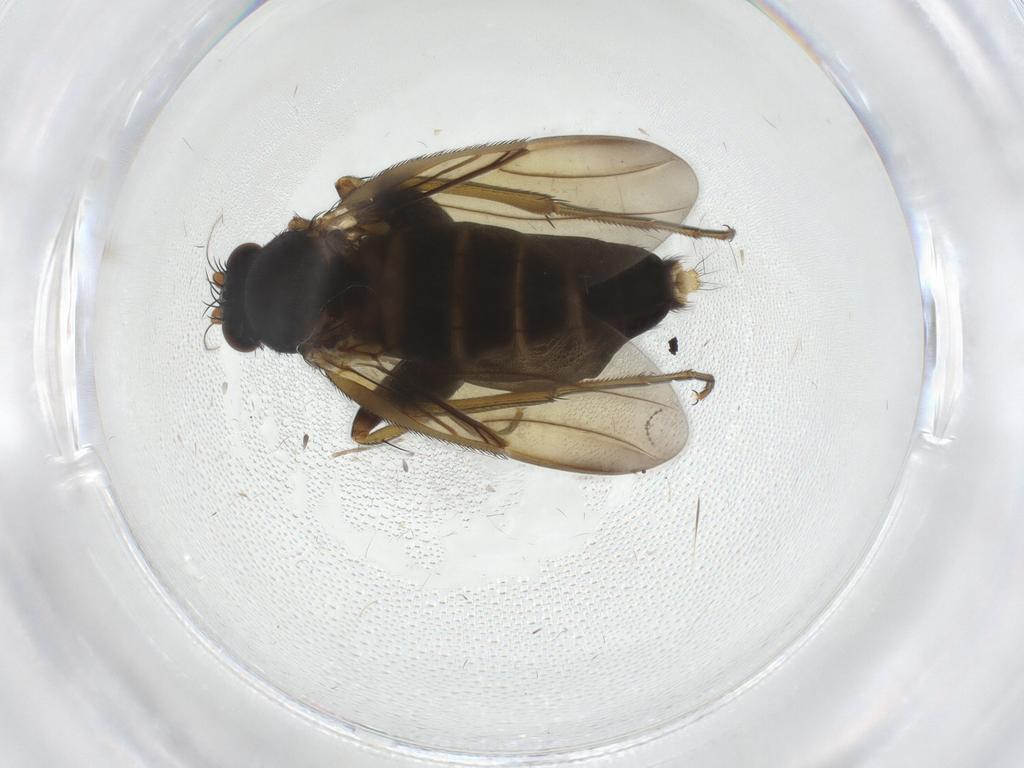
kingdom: Animalia
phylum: Arthropoda
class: Insecta
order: Diptera
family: Phoridae
